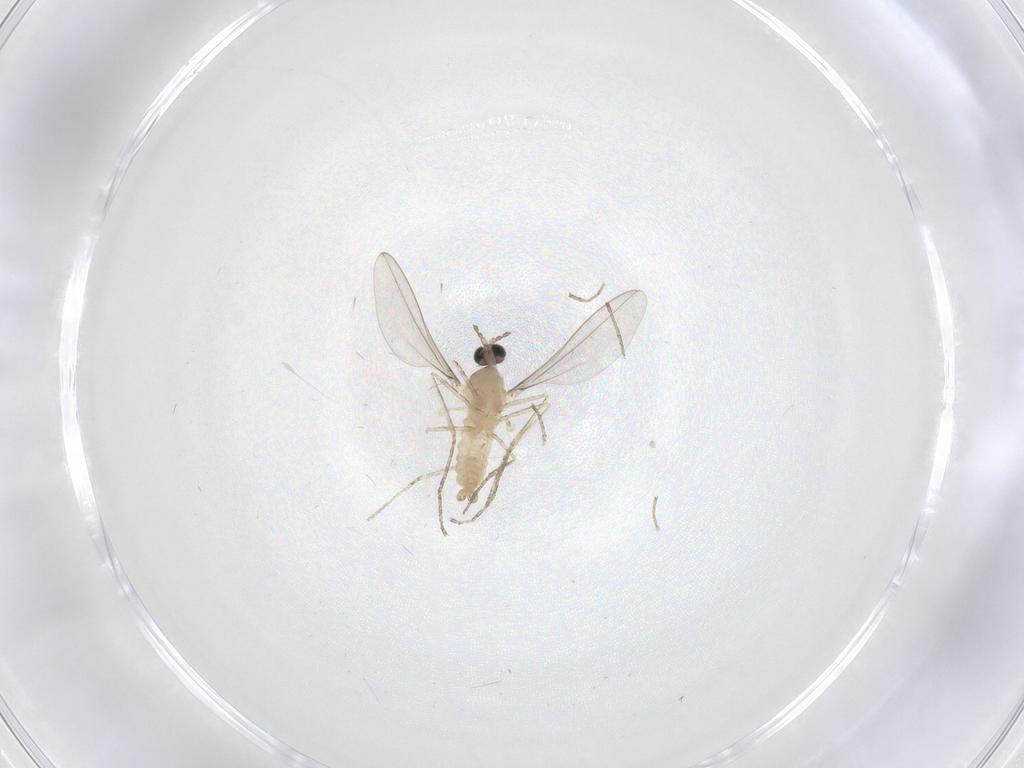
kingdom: Animalia
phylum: Arthropoda
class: Insecta
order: Diptera
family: Cecidomyiidae
